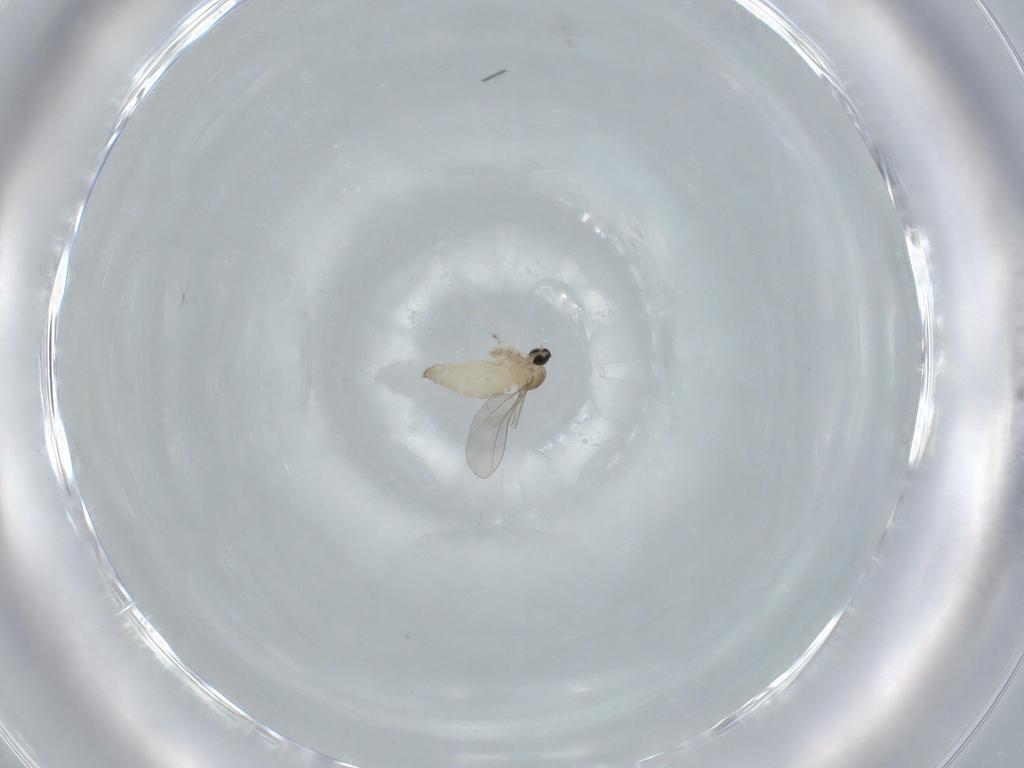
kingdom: Animalia
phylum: Arthropoda
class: Insecta
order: Diptera
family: Cecidomyiidae
